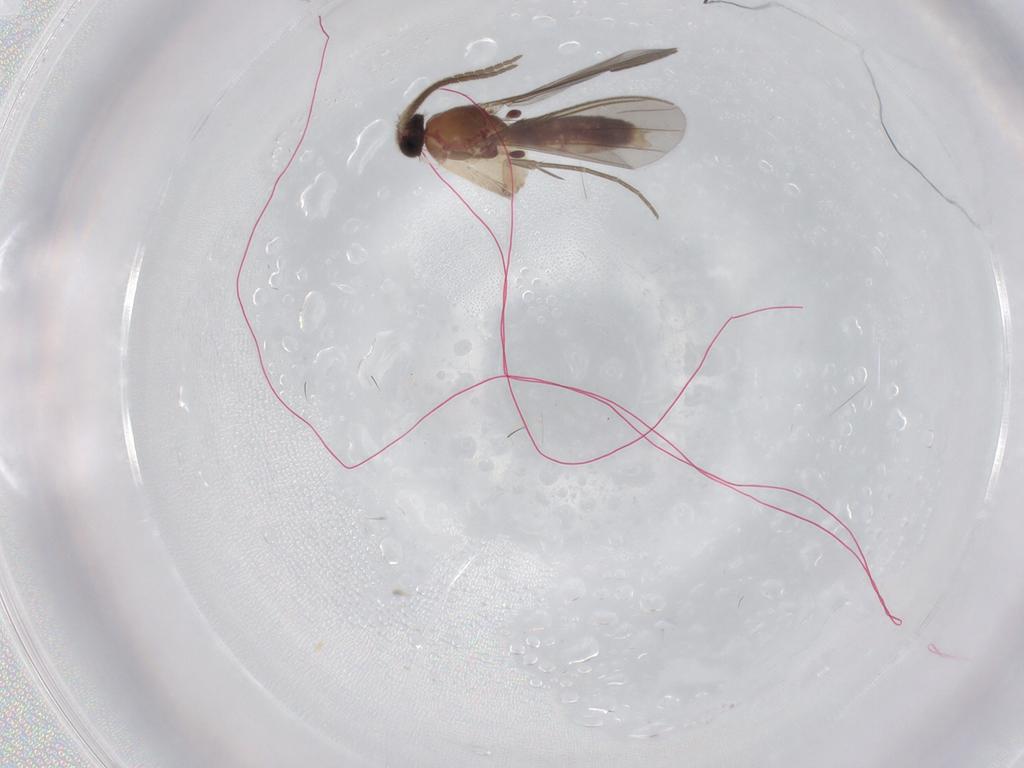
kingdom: Animalia
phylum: Arthropoda
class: Insecta
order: Diptera
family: Mycetophilidae
